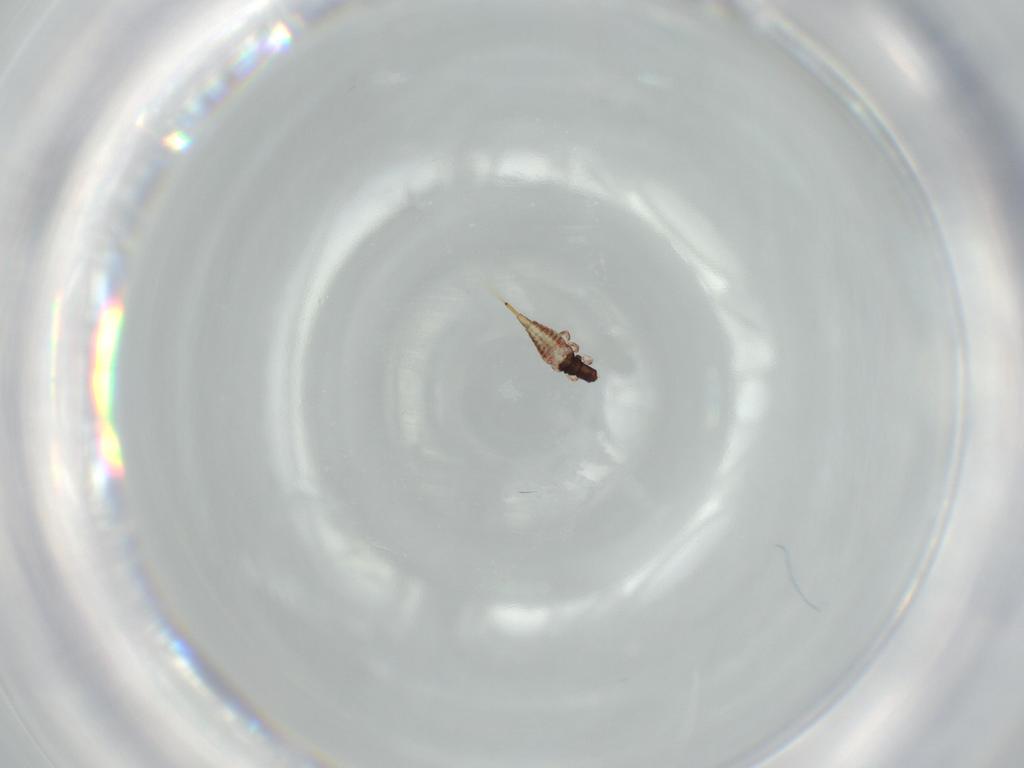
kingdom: Animalia
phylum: Arthropoda
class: Insecta
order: Thysanoptera
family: Phlaeothripidae
